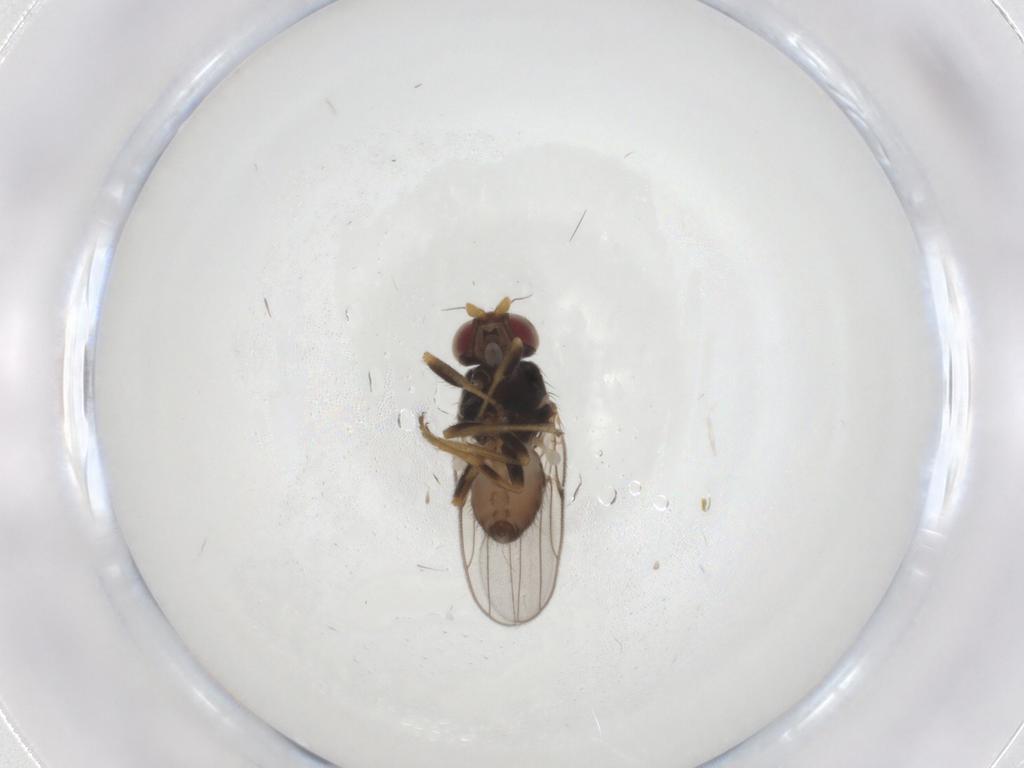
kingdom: Animalia
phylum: Arthropoda
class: Insecta
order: Diptera
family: Chloropidae
